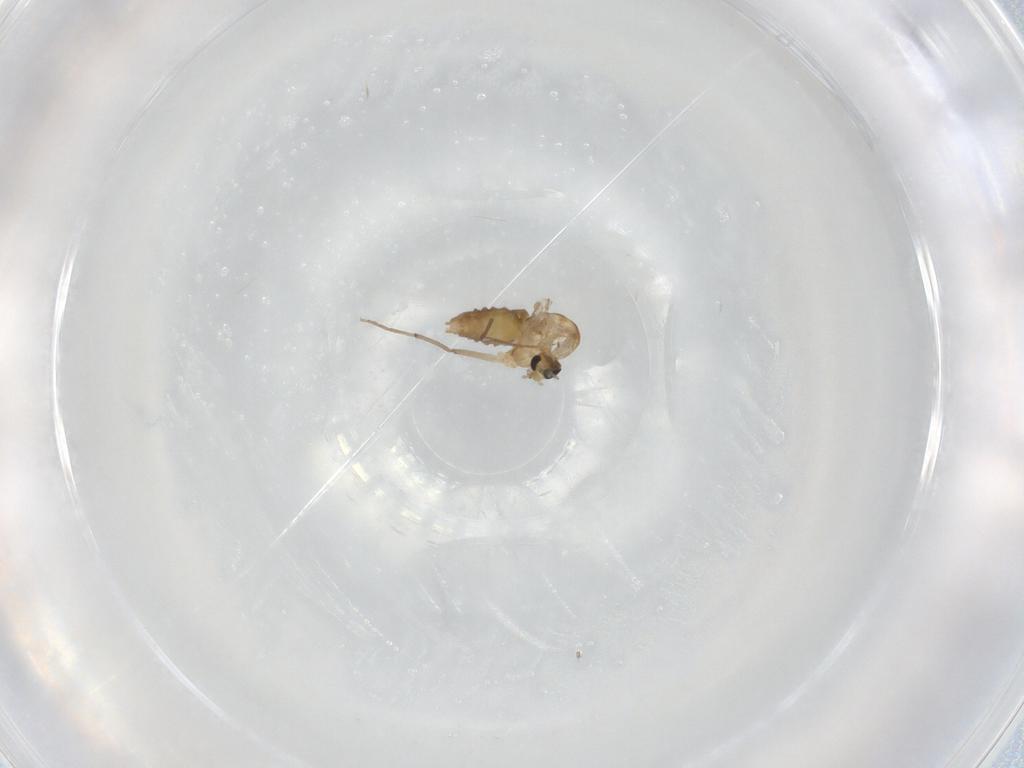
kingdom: Animalia
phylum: Arthropoda
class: Insecta
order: Diptera
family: Chironomidae
